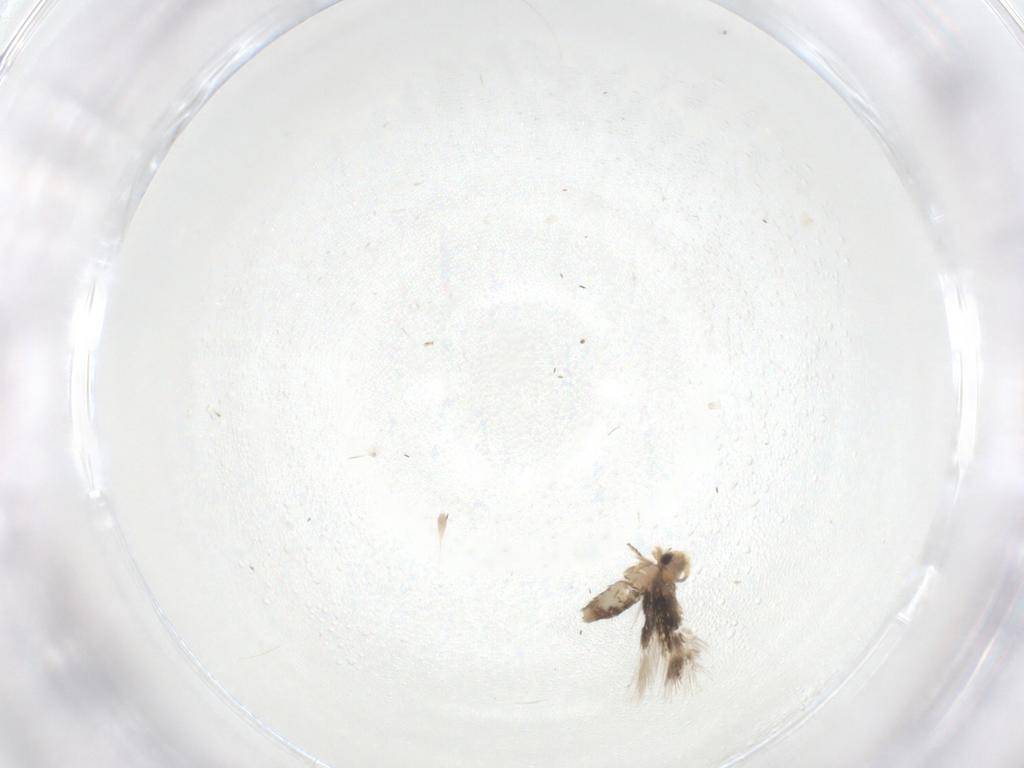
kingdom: Animalia
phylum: Arthropoda
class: Insecta
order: Lepidoptera
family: Nepticulidae
